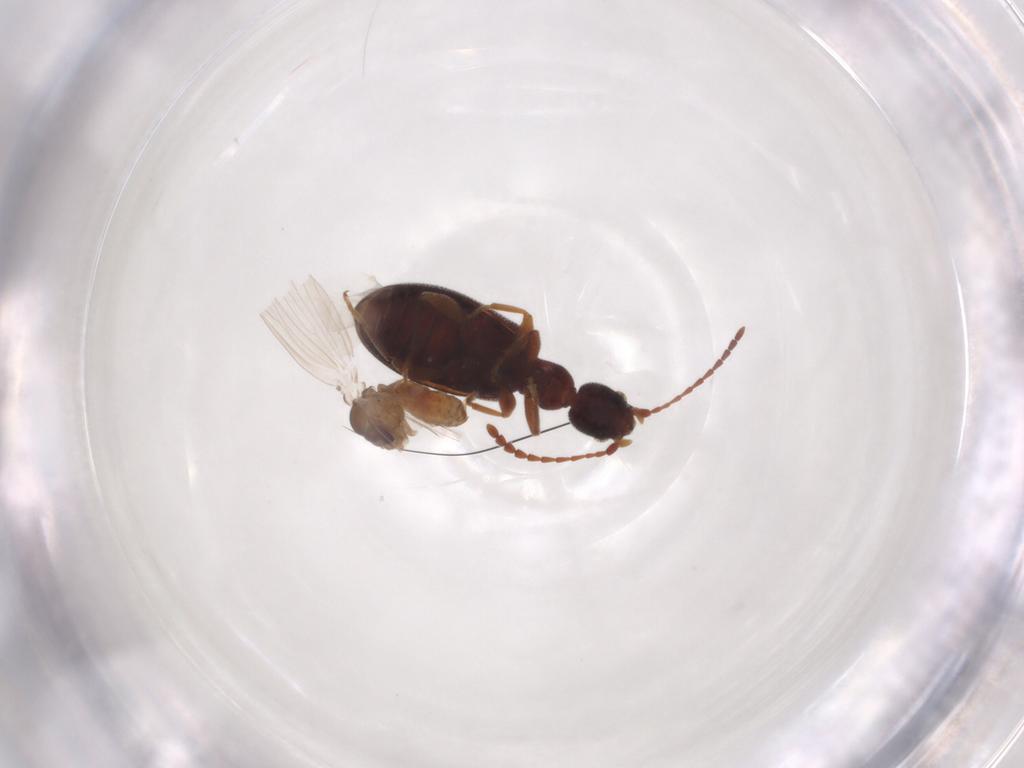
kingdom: Animalia
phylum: Arthropoda
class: Insecta
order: Diptera
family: Psychodidae
